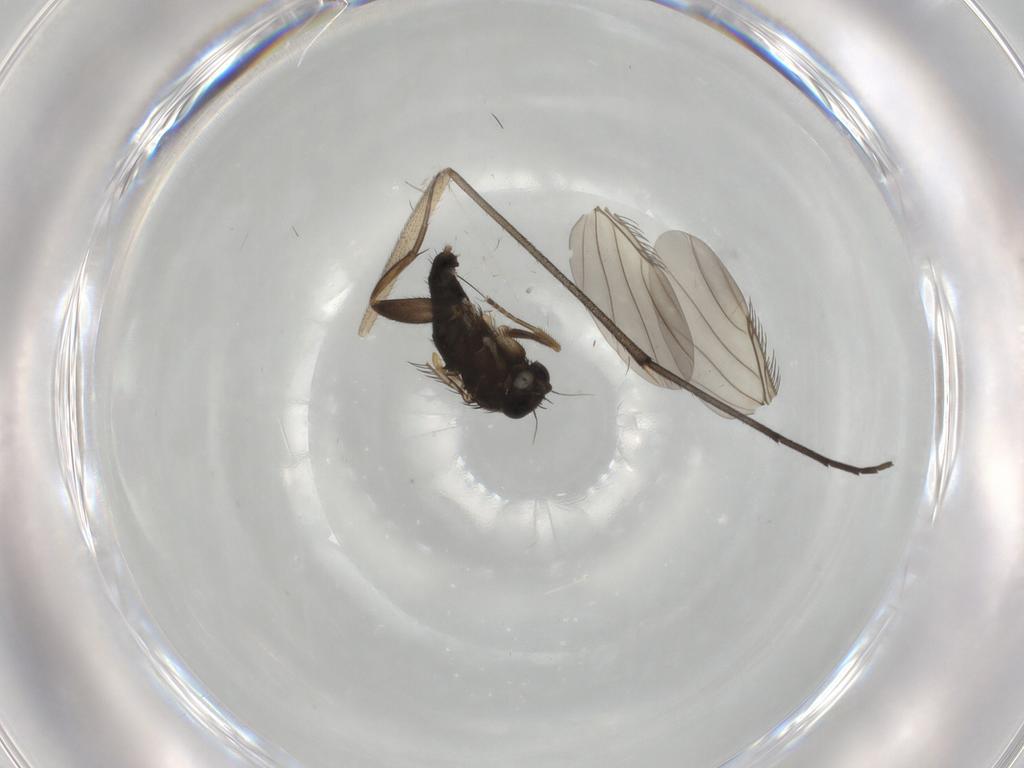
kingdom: Animalia
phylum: Arthropoda
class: Insecta
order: Diptera
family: Phoridae
